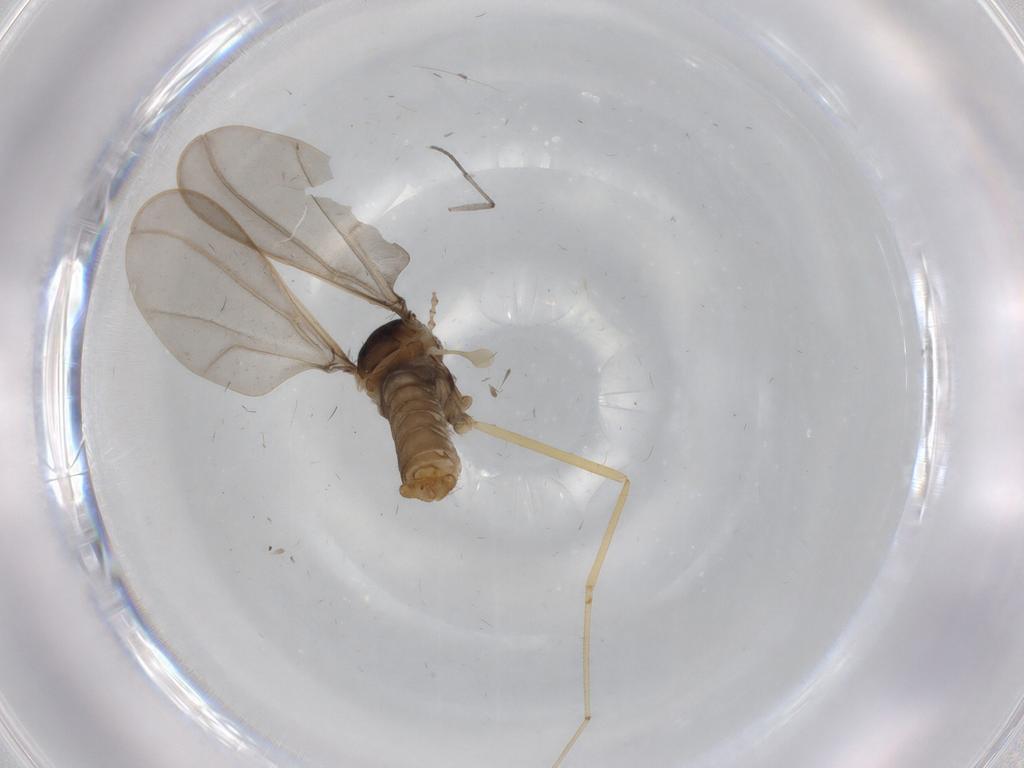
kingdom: Animalia
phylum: Arthropoda
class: Insecta
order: Diptera
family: Cecidomyiidae
